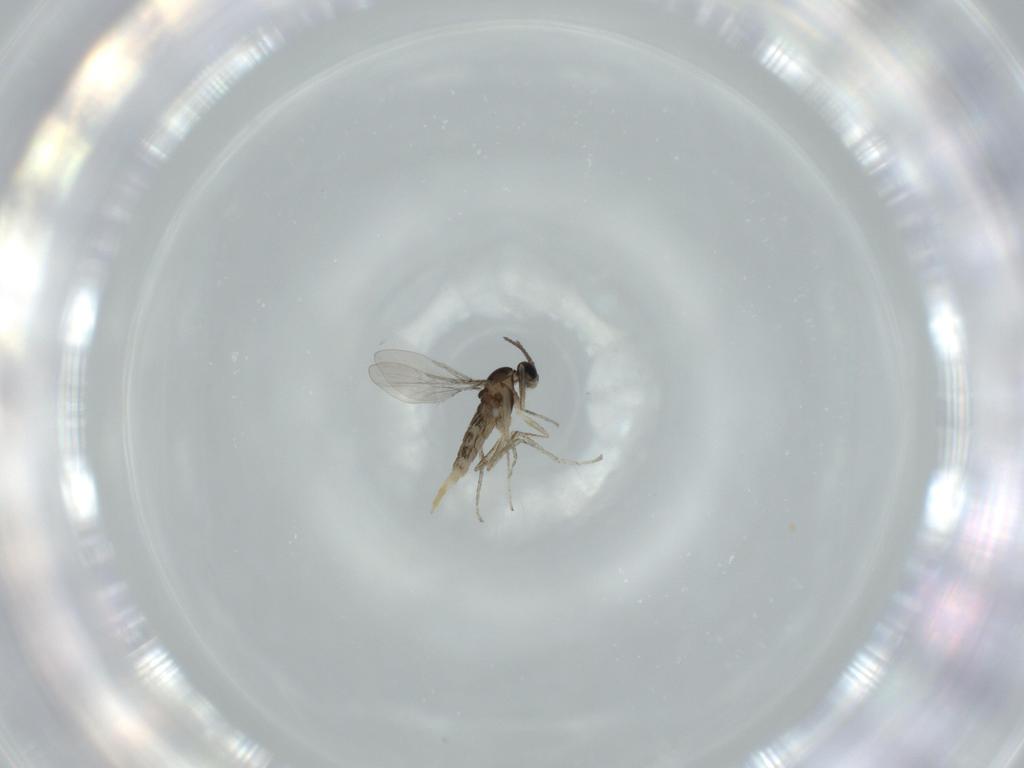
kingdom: Animalia
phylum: Arthropoda
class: Insecta
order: Diptera
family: Cecidomyiidae
